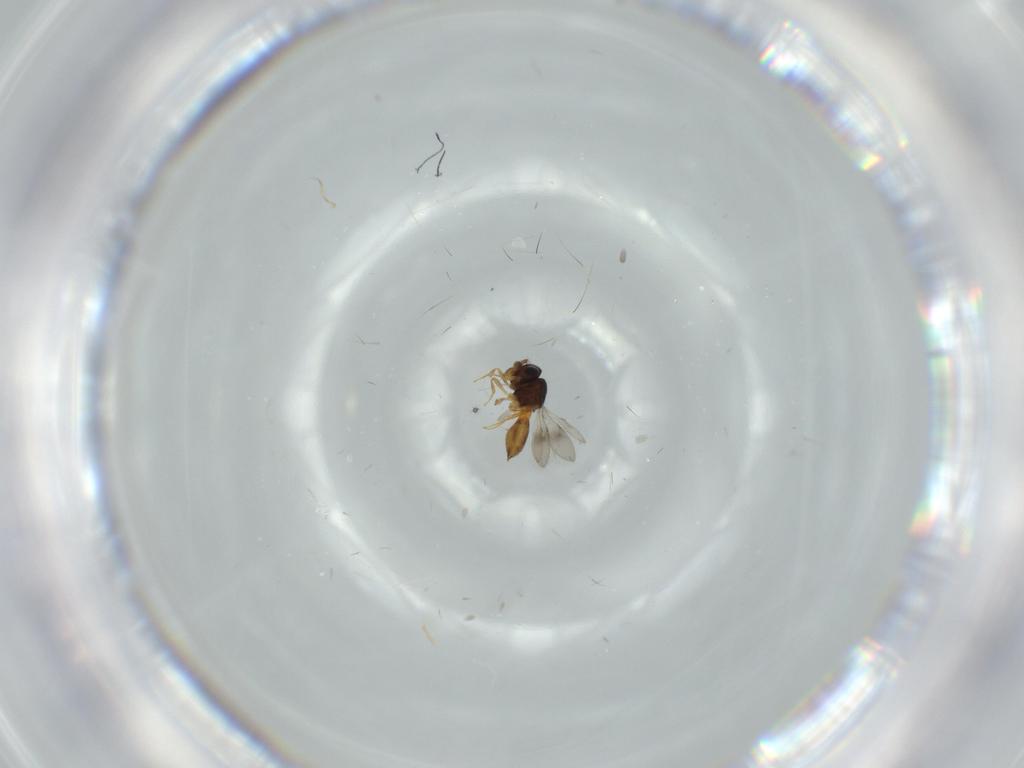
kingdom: Animalia
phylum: Arthropoda
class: Insecta
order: Hymenoptera
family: Scelionidae
